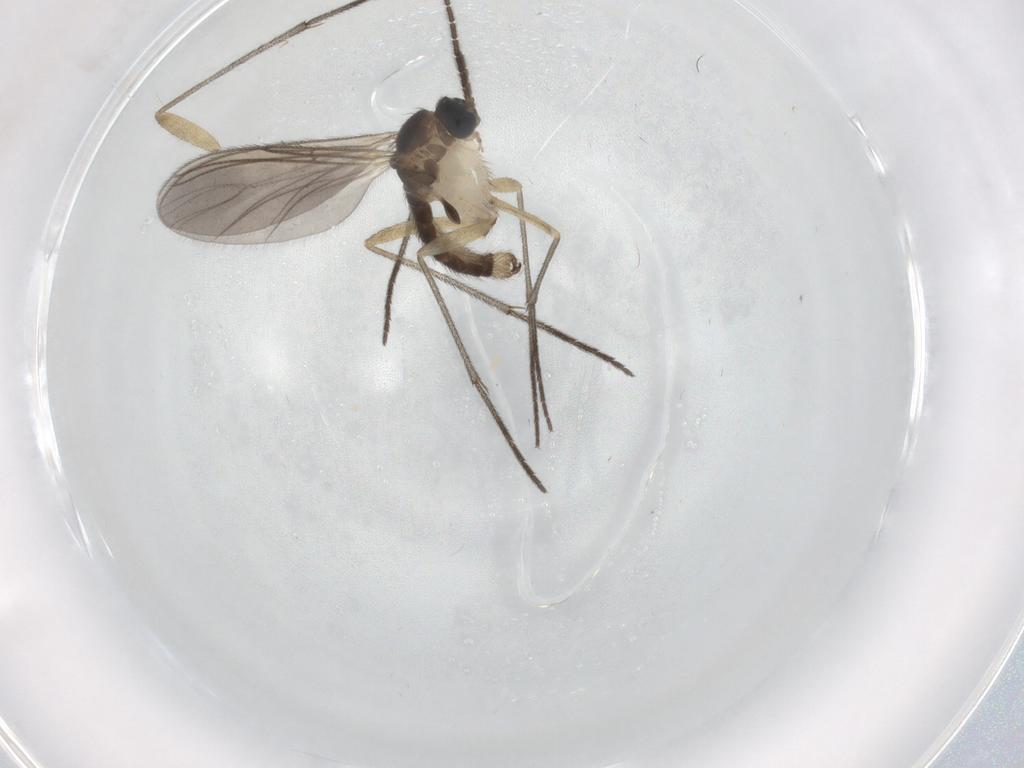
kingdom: Animalia
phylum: Arthropoda
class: Insecta
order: Diptera
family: Sciaridae
